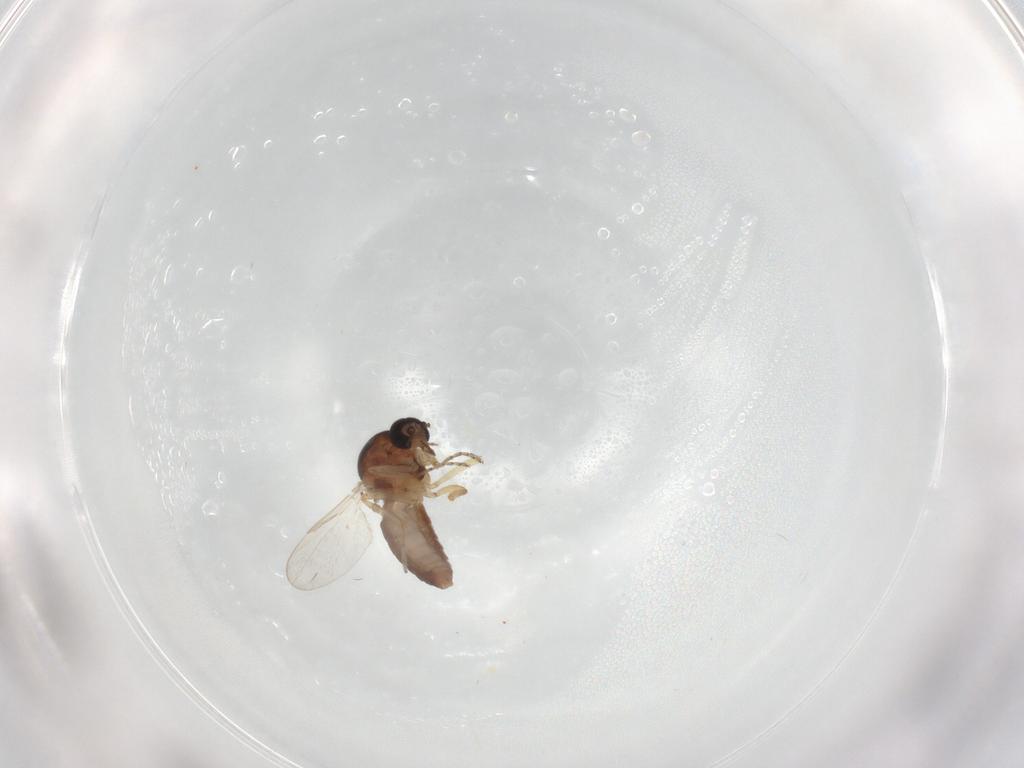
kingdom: Animalia
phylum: Arthropoda
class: Insecta
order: Diptera
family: Ceratopogonidae
